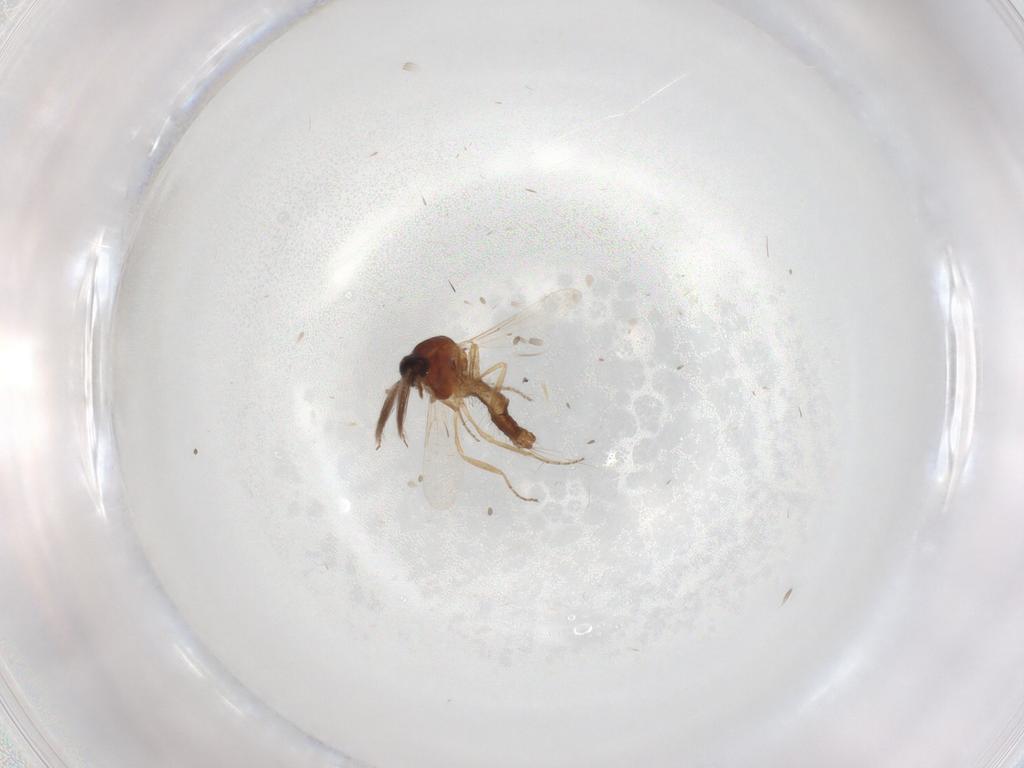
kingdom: Animalia
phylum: Arthropoda
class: Insecta
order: Diptera
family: Ceratopogonidae
